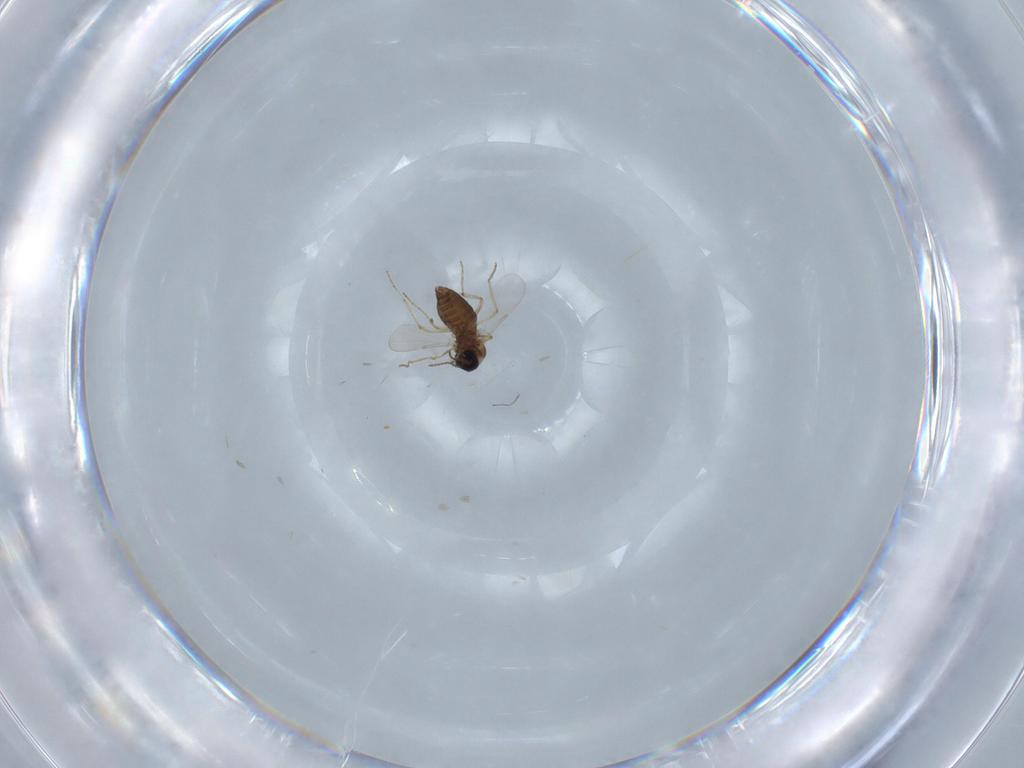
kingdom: Animalia
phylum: Arthropoda
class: Insecta
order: Diptera
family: Ceratopogonidae
